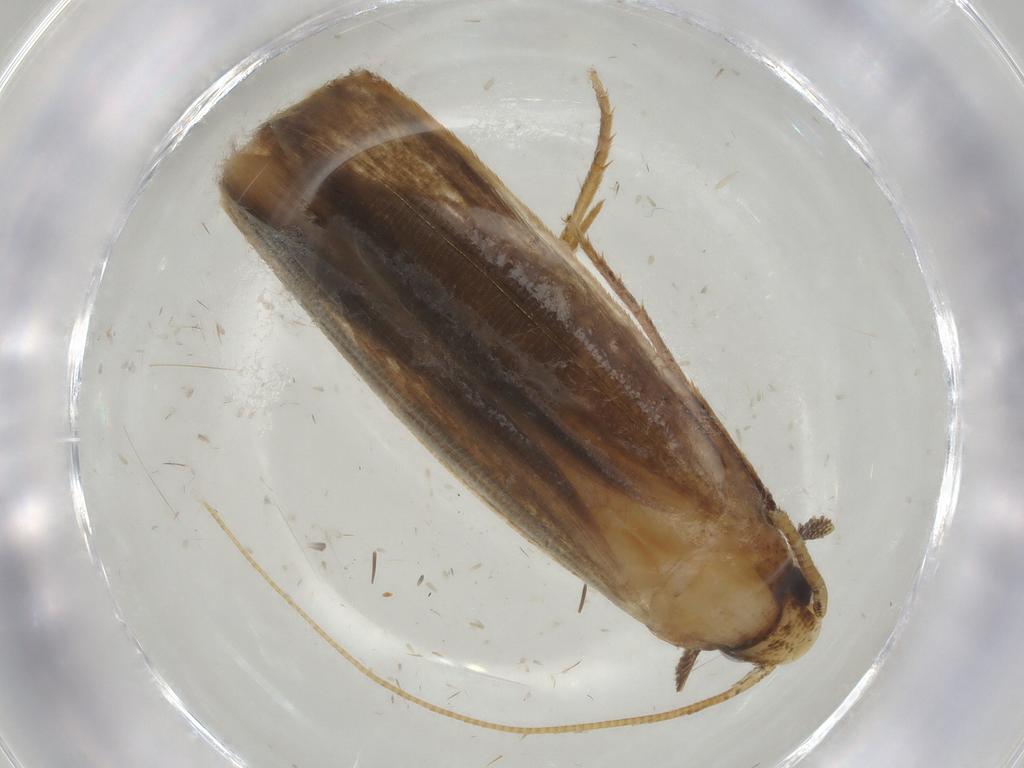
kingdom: Animalia
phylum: Arthropoda
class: Insecta
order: Lepidoptera
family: Tineidae
